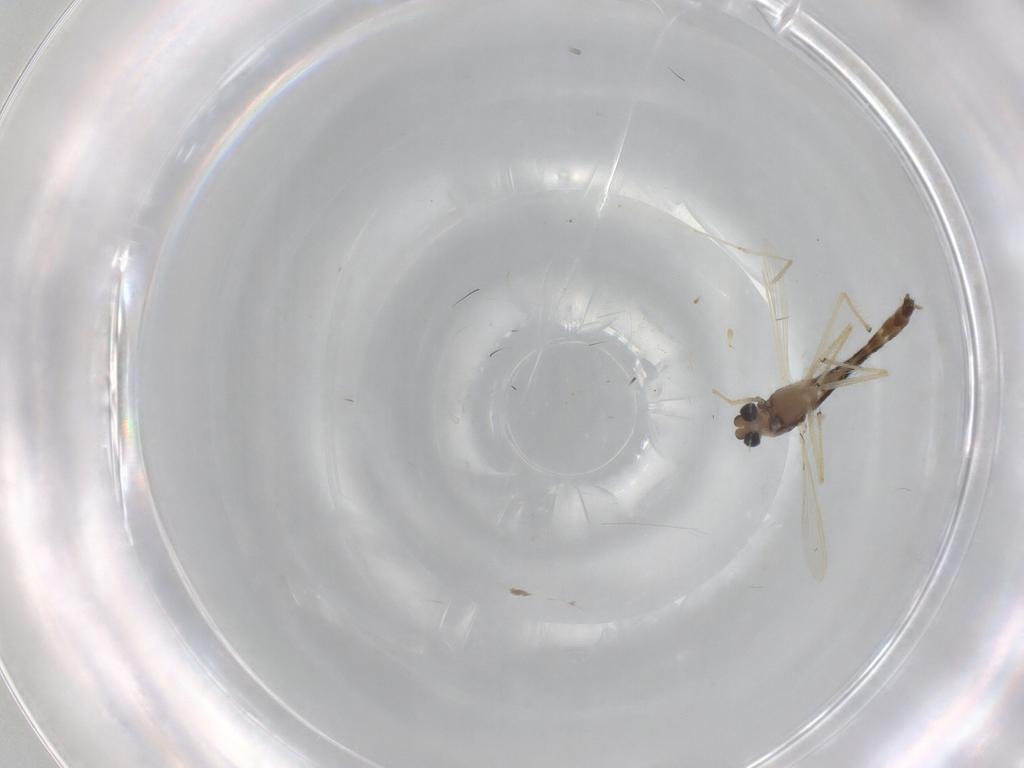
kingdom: Animalia
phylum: Arthropoda
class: Insecta
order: Diptera
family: Chironomidae
